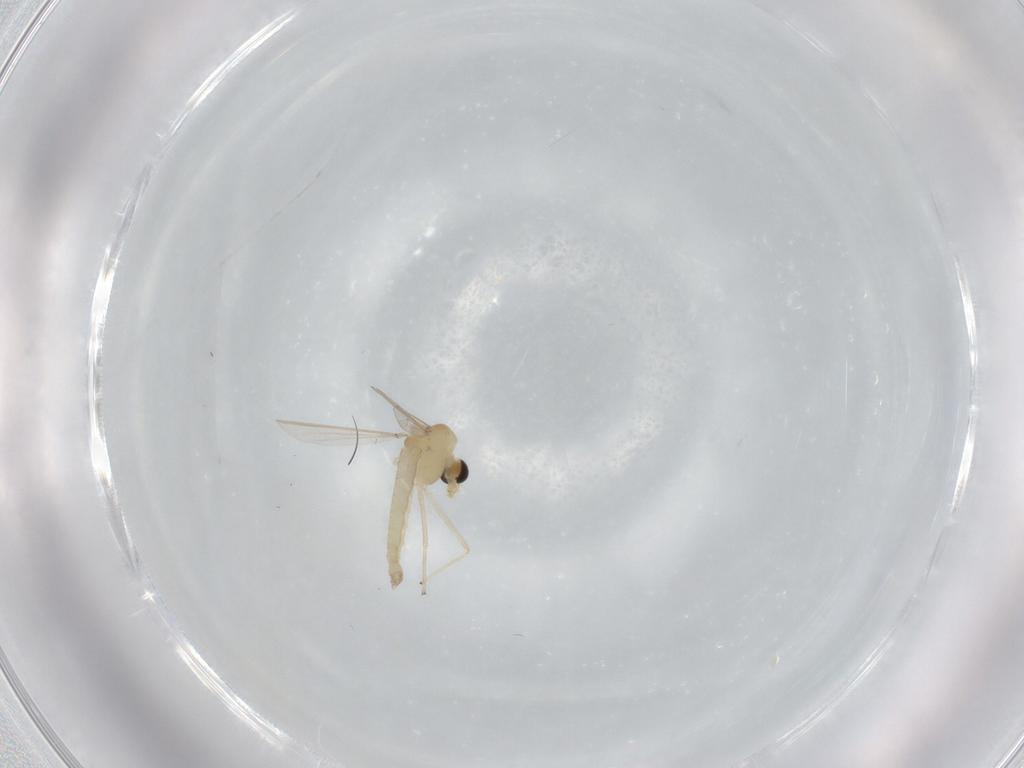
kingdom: Animalia
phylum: Arthropoda
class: Insecta
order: Diptera
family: Chironomidae
